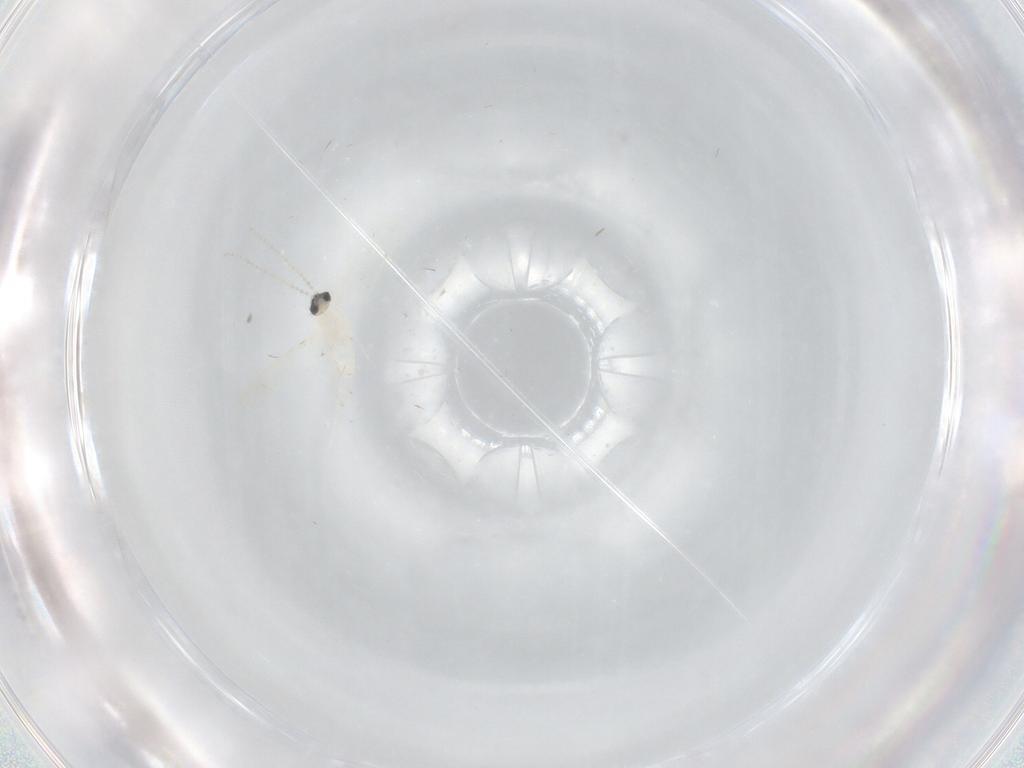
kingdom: Animalia
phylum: Arthropoda
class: Insecta
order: Diptera
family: Cecidomyiidae
